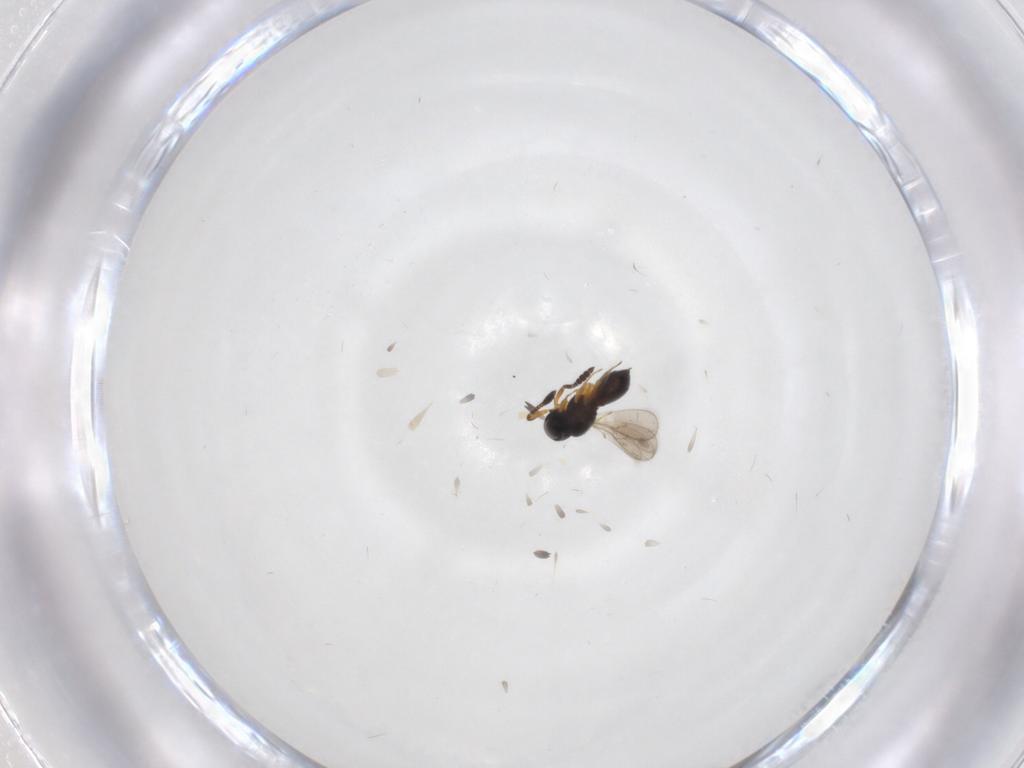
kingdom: Animalia
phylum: Arthropoda
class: Insecta
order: Hymenoptera
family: Scelionidae
